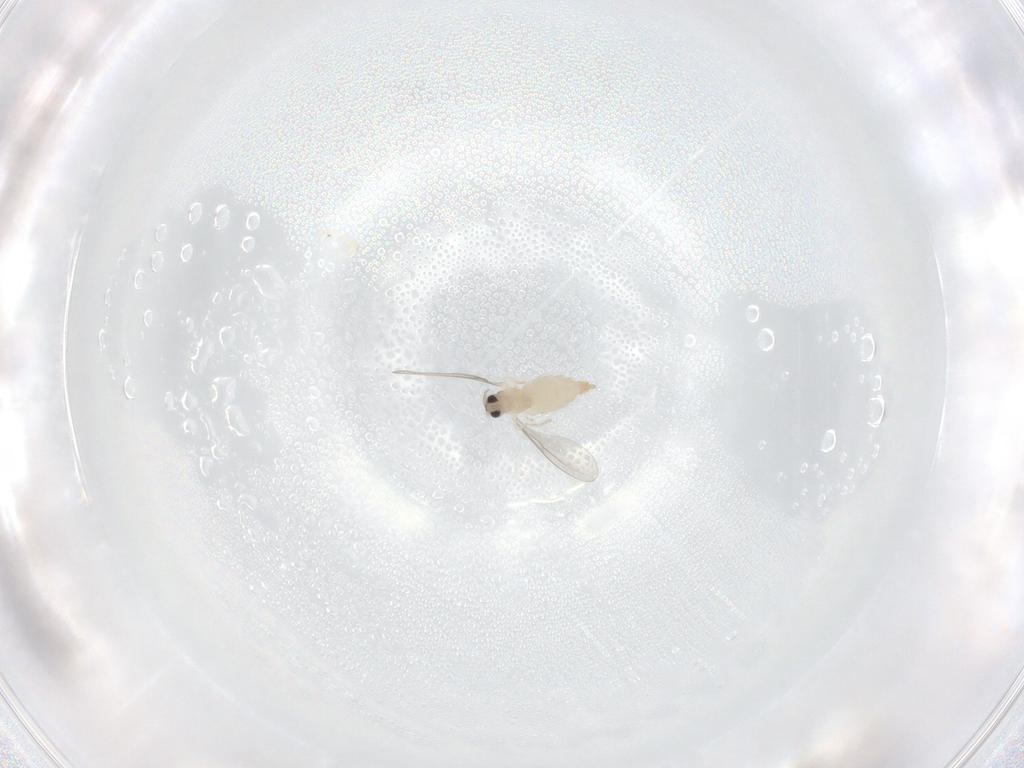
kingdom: Animalia
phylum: Arthropoda
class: Insecta
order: Diptera
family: Cecidomyiidae
